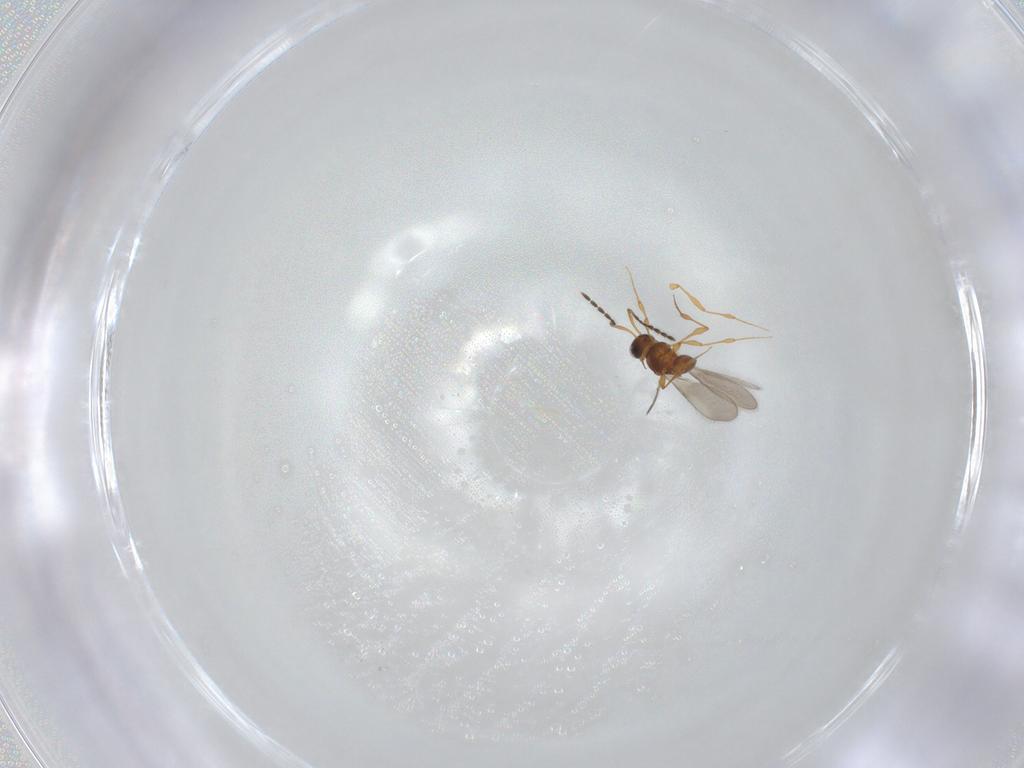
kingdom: Animalia
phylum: Arthropoda
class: Insecta
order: Hymenoptera
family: Platygastridae
